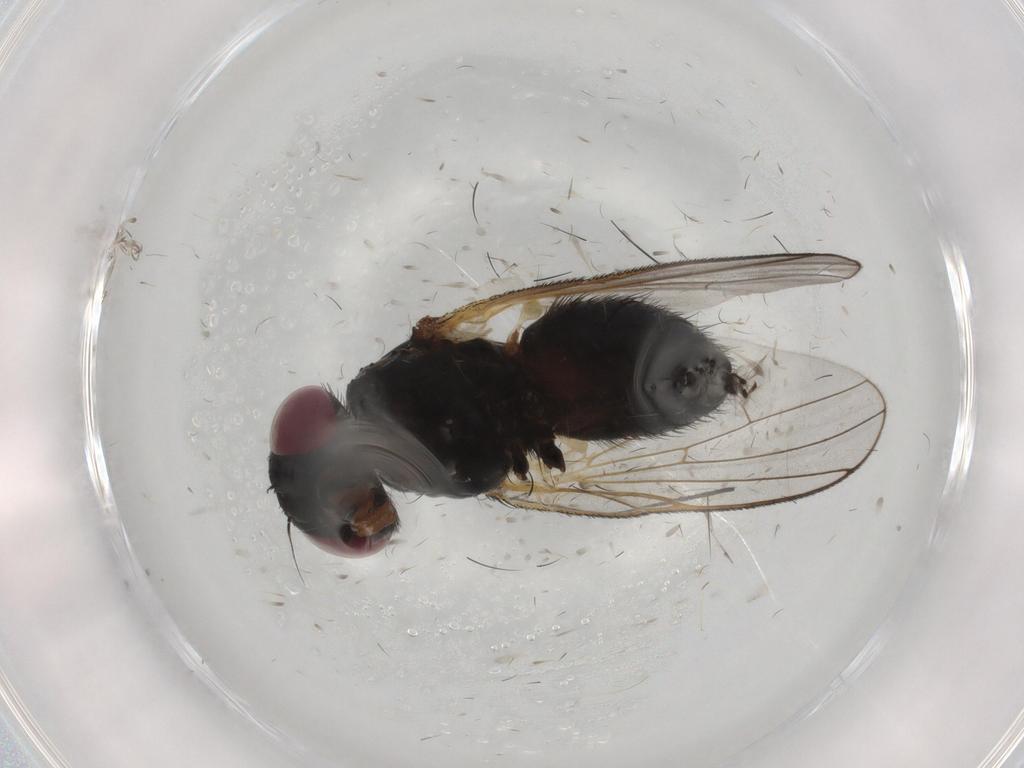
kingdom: Animalia
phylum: Arthropoda
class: Insecta
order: Diptera
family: Fannia
